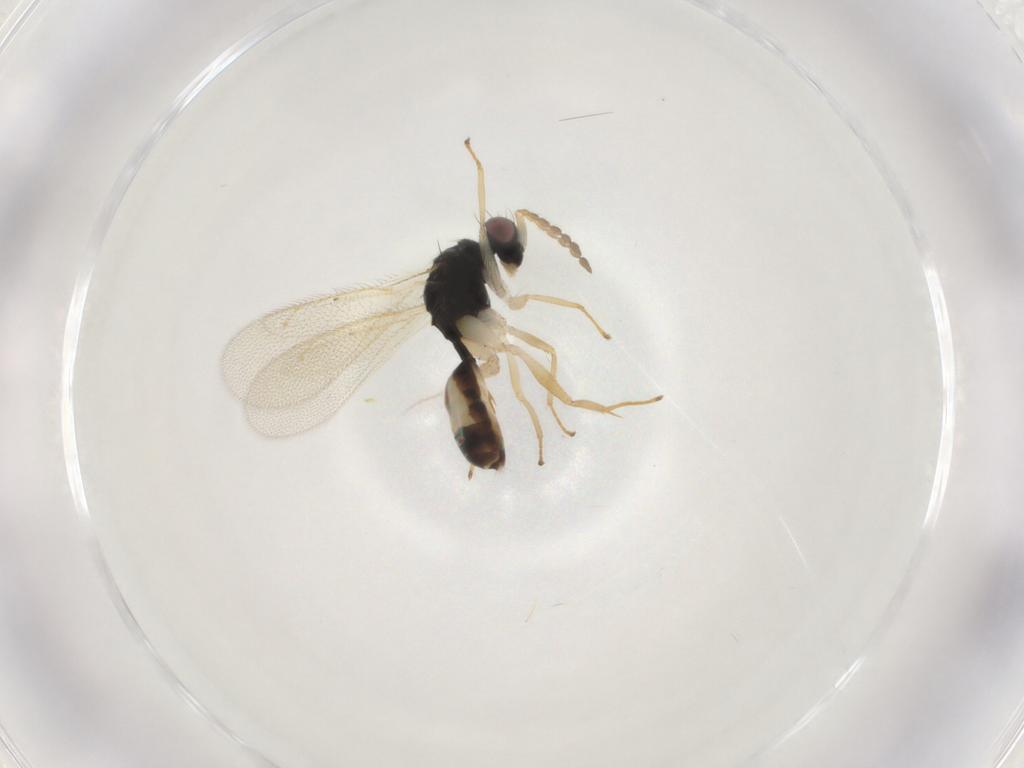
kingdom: Animalia
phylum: Arthropoda
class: Insecta
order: Hymenoptera
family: Eulophidae
